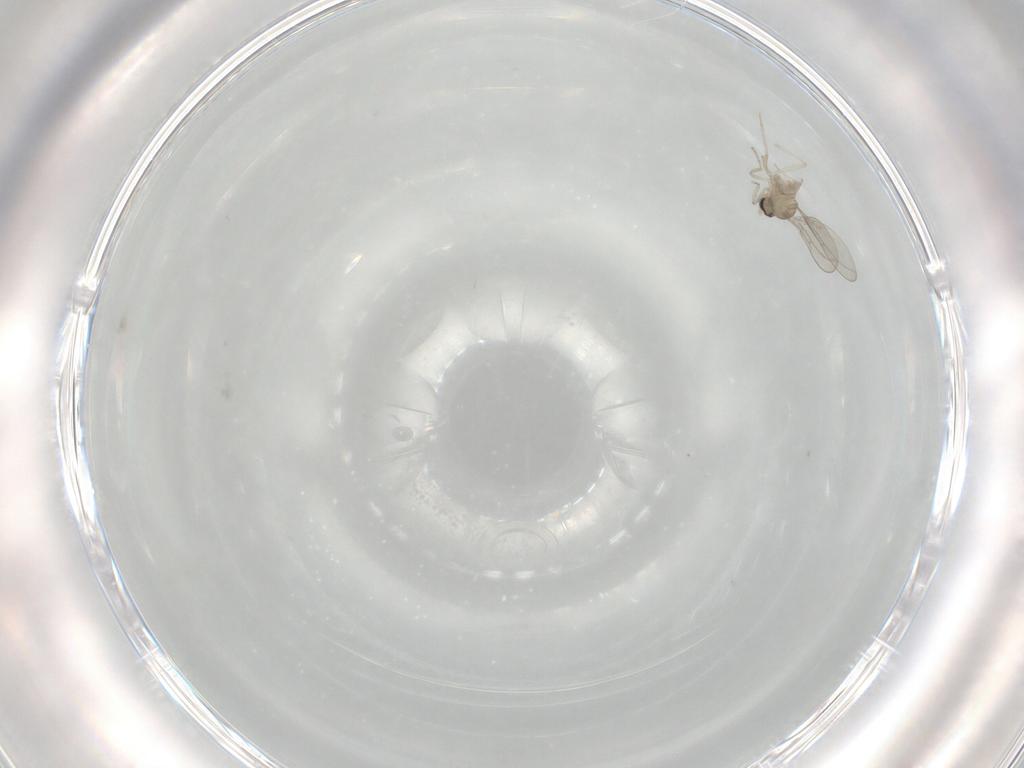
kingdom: Animalia
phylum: Arthropoda
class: Insecta
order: Diptera
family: Cecidomyiidae
